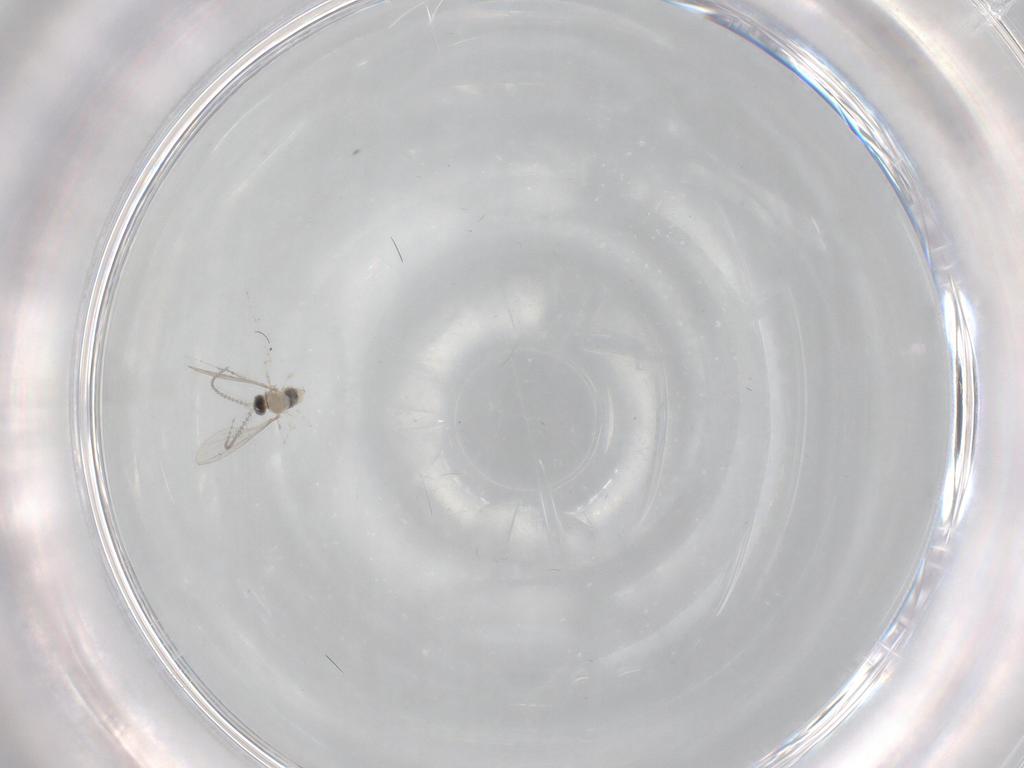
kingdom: Animalia
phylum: Arthropoda
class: Insecta
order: Diptera
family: Cecidomyiidae
